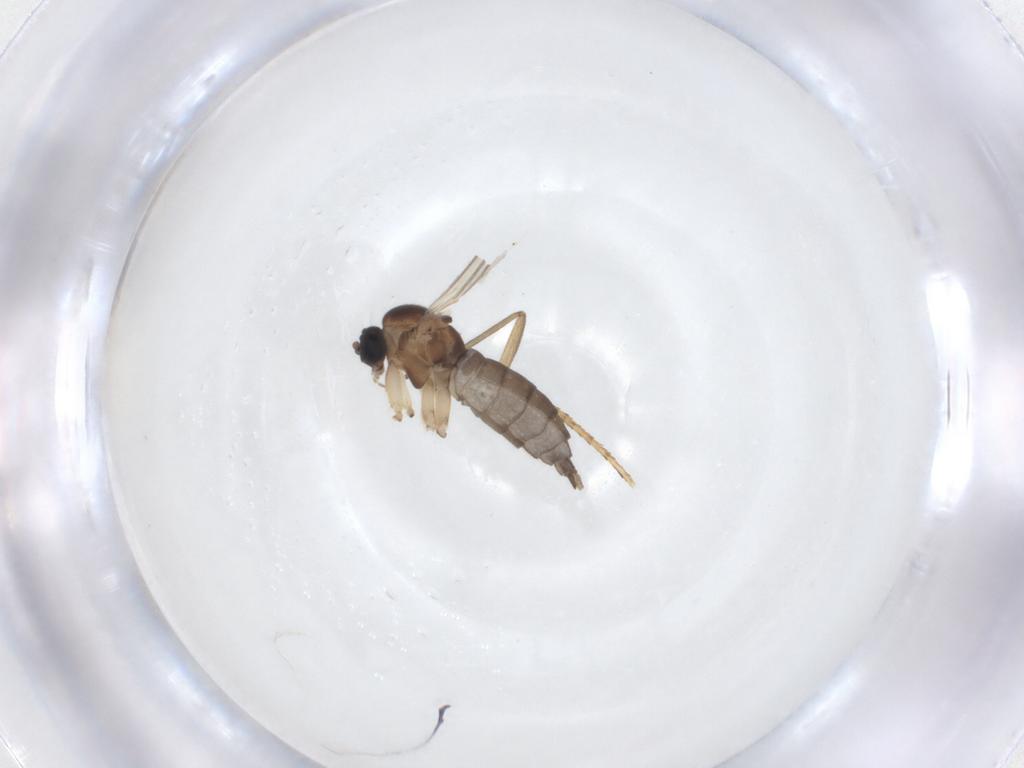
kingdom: Animalia
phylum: Arthropoda
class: Insecta
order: Diptera
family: Sciaridae
